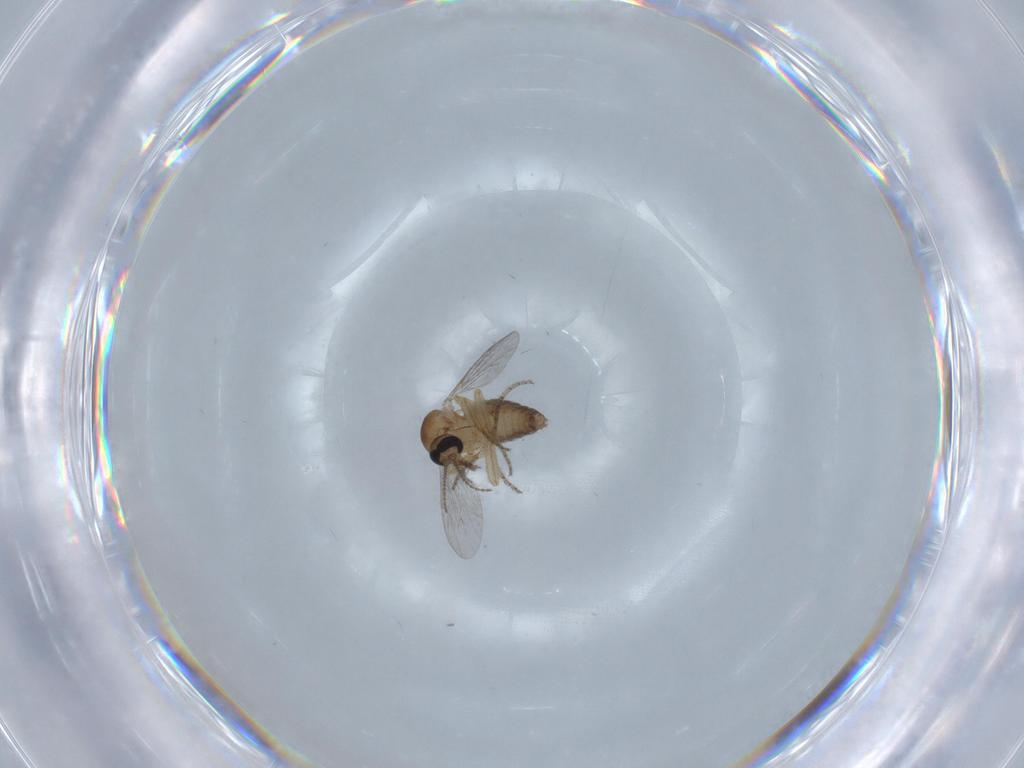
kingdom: Animalia
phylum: Arthropoda
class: Insecta
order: Diptera
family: Ceratopogonidae
